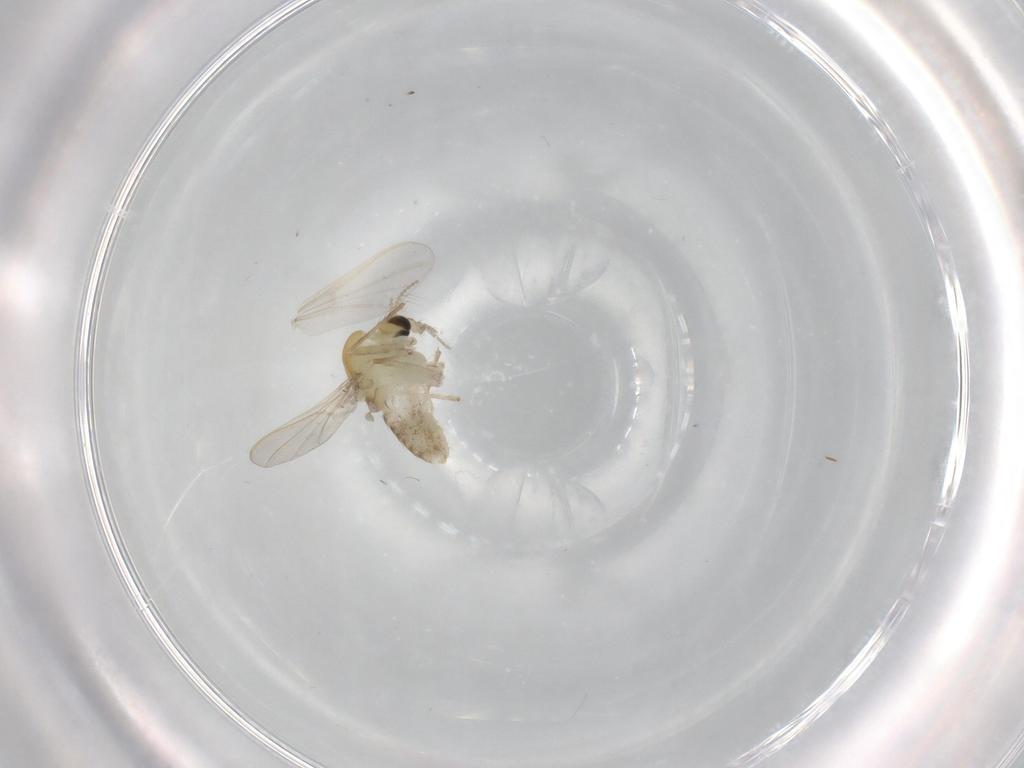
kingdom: Animalia
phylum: Arthropoda
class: Insecta
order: Diptera
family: Chironomidae
